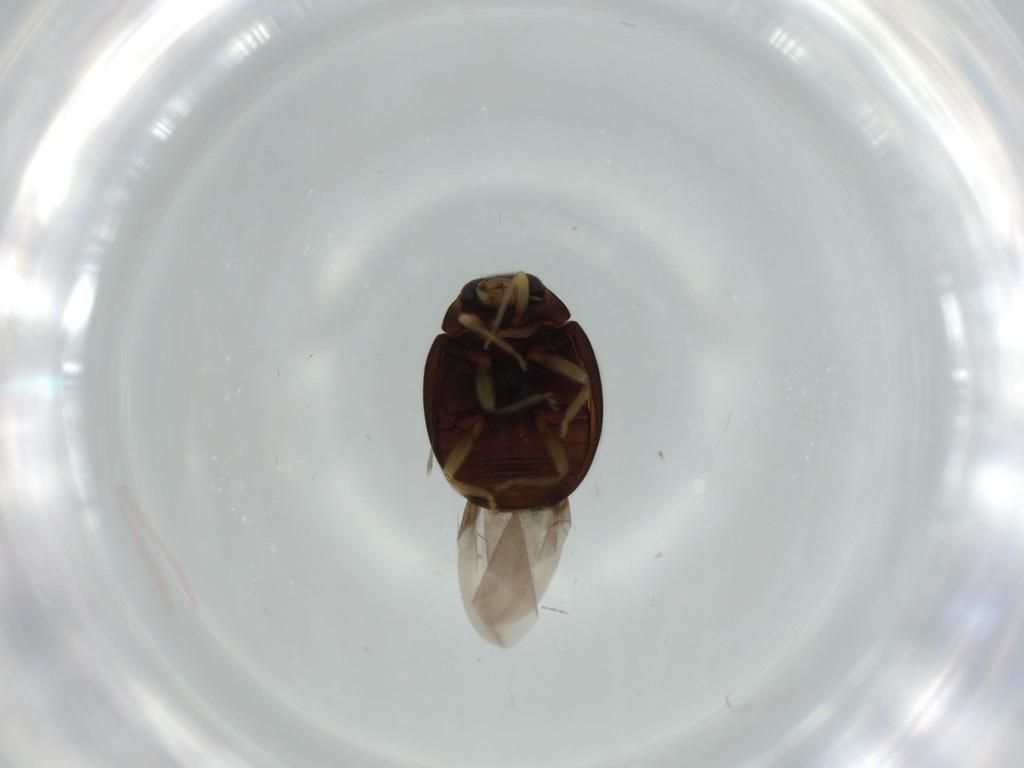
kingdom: Animalia
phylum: Arthropoda
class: Insecta
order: Coleoptera
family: Coccinellidae
